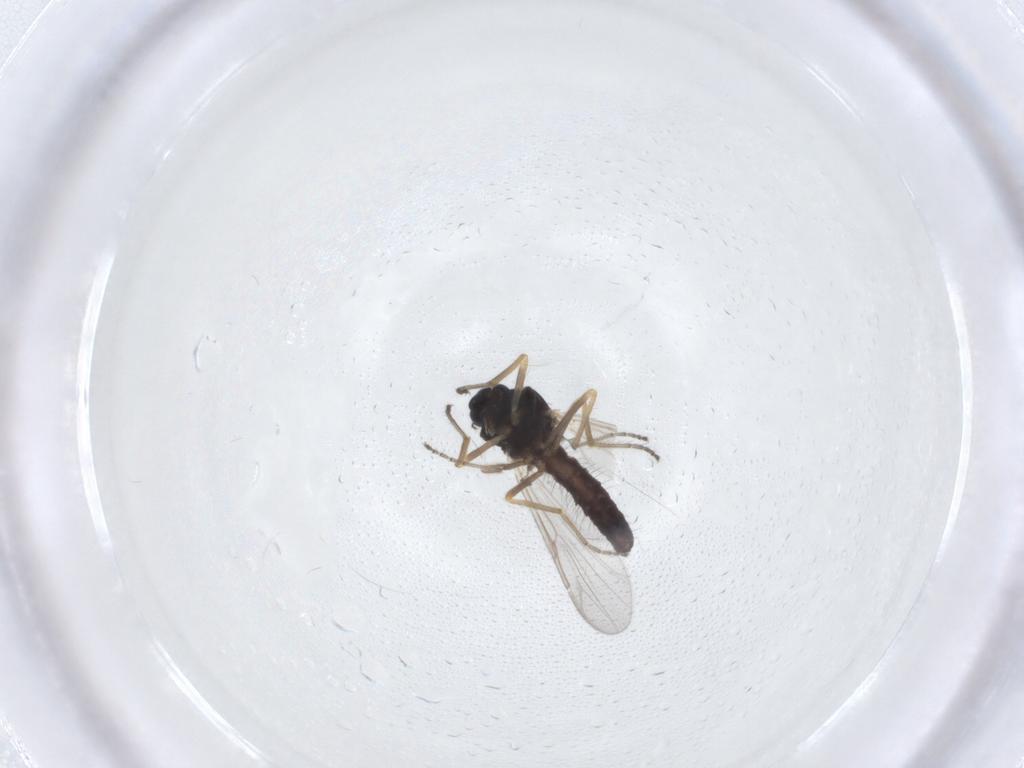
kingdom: Animalia
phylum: Arthropoda
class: Insecta
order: Diptera
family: Ceratopogonidae
